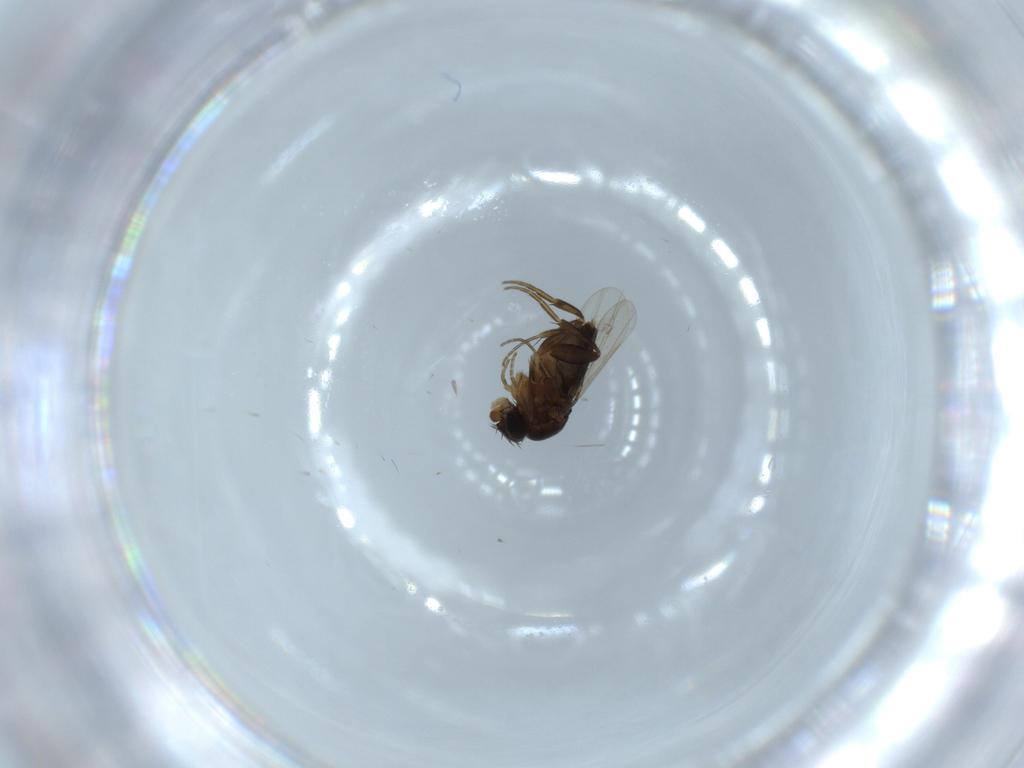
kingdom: Animalia
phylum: Arthropoda
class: Insecta
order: Diptera
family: Phoridae
